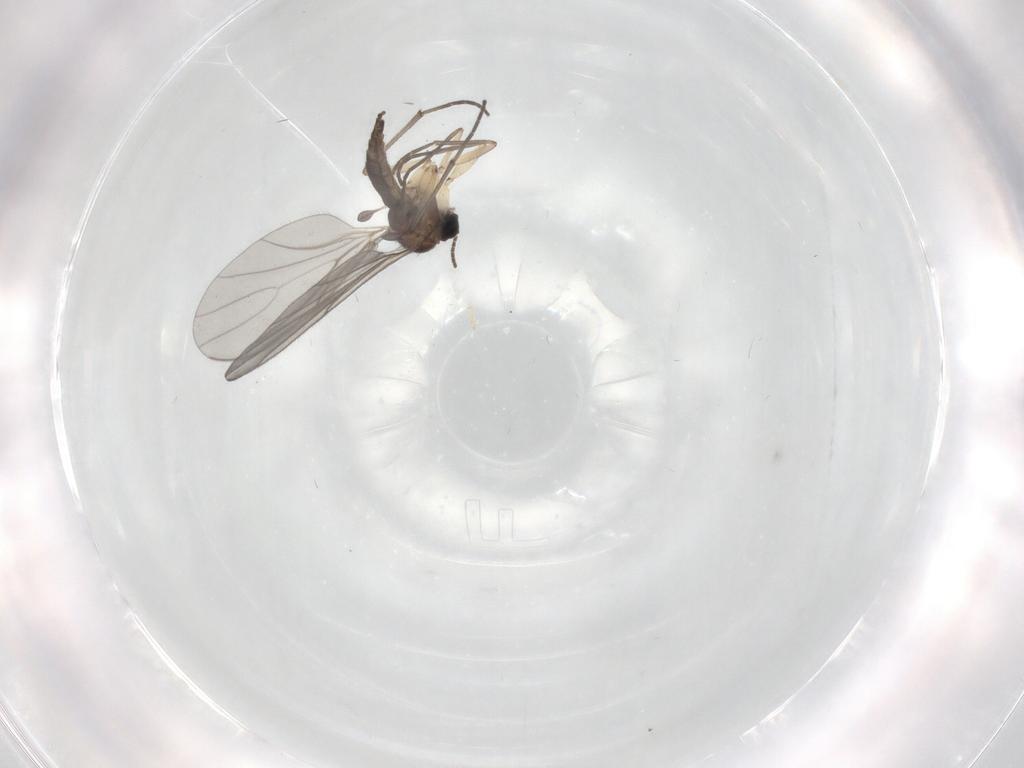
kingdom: Animalia
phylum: Arthropoda
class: Insecta
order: Diptera
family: Sciaridae
